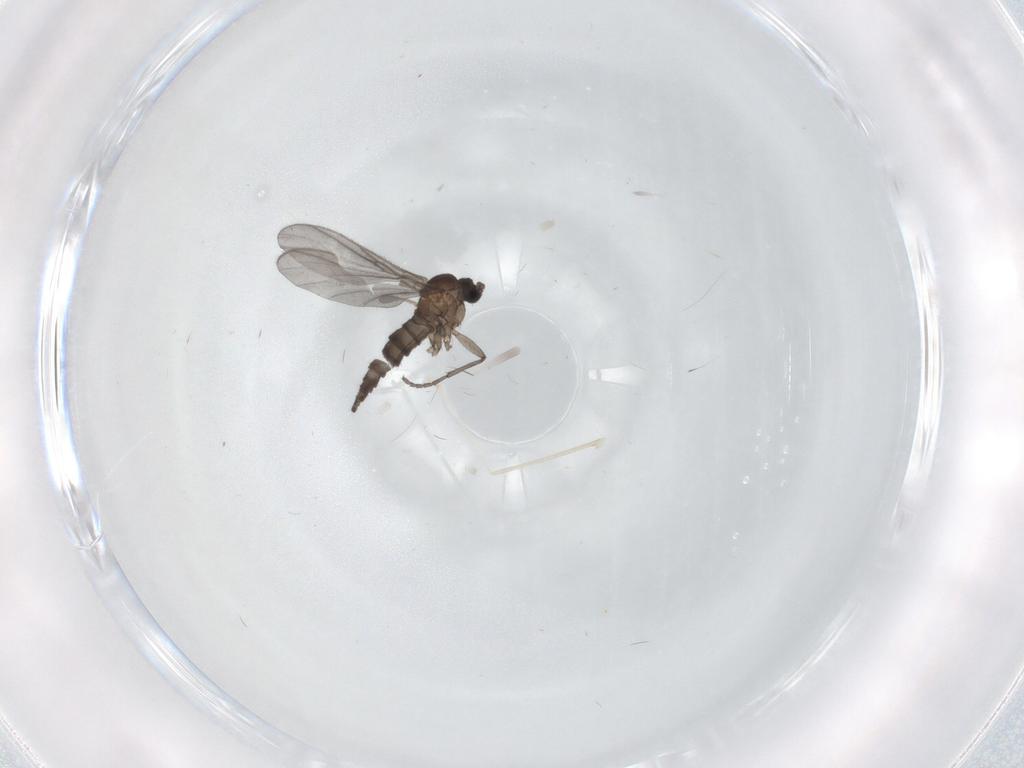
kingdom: Animalia
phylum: Arthropoda
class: Insecta
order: Diptera
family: Sciaridae
